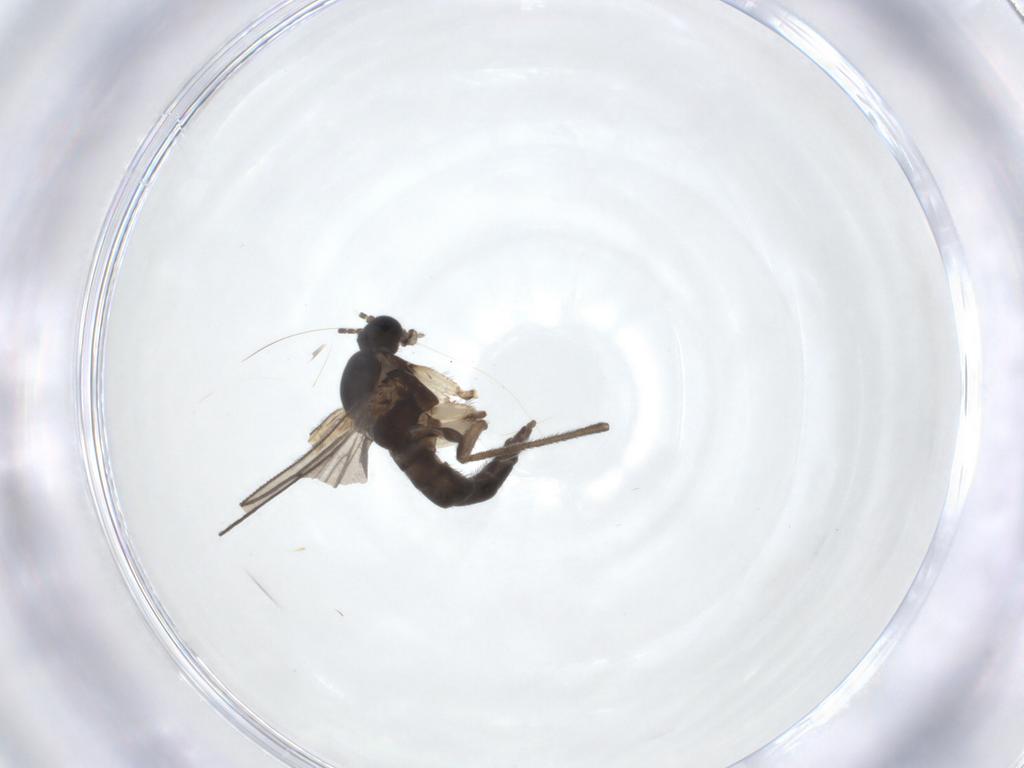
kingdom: Animalia
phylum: Arthropoda
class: Insecta
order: Diptera
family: Sciaridae
